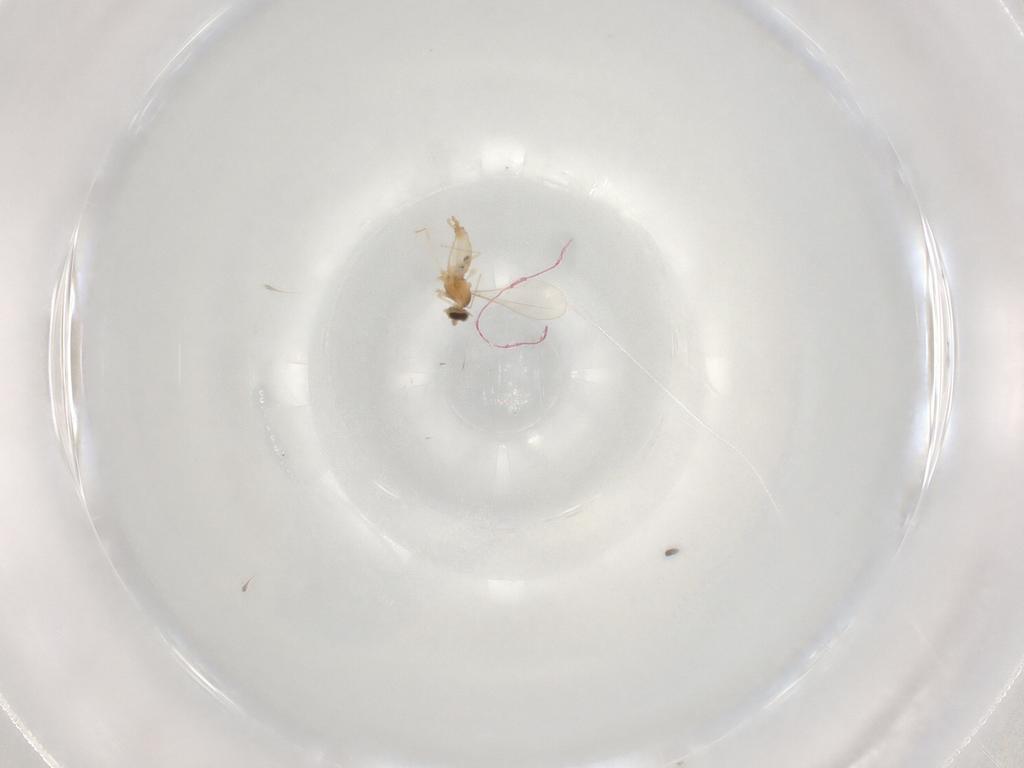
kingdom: Animalia
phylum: Arthropoda
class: Insecta
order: Diptera
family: Cecidomyiidae
